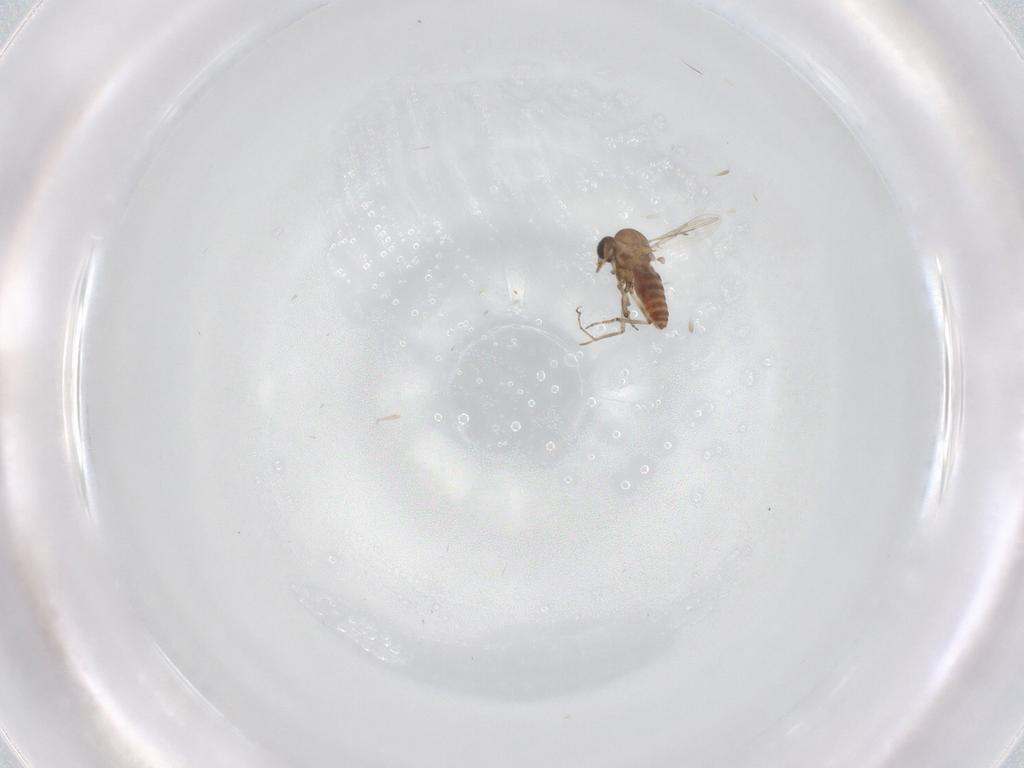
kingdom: Animalia
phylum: Arthropoda
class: Insecta
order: Diptera
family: Ceratopogonidae
